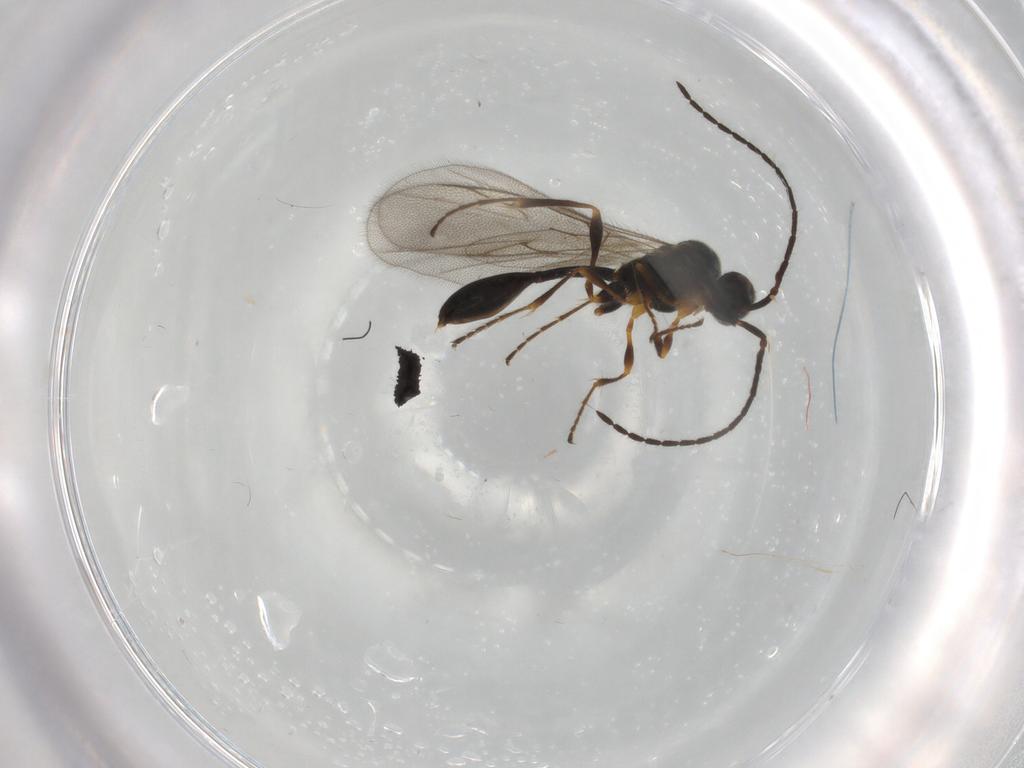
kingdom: Animalia
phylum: Arthropoda
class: Insecta
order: Hymenoptera
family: Diapriidae
